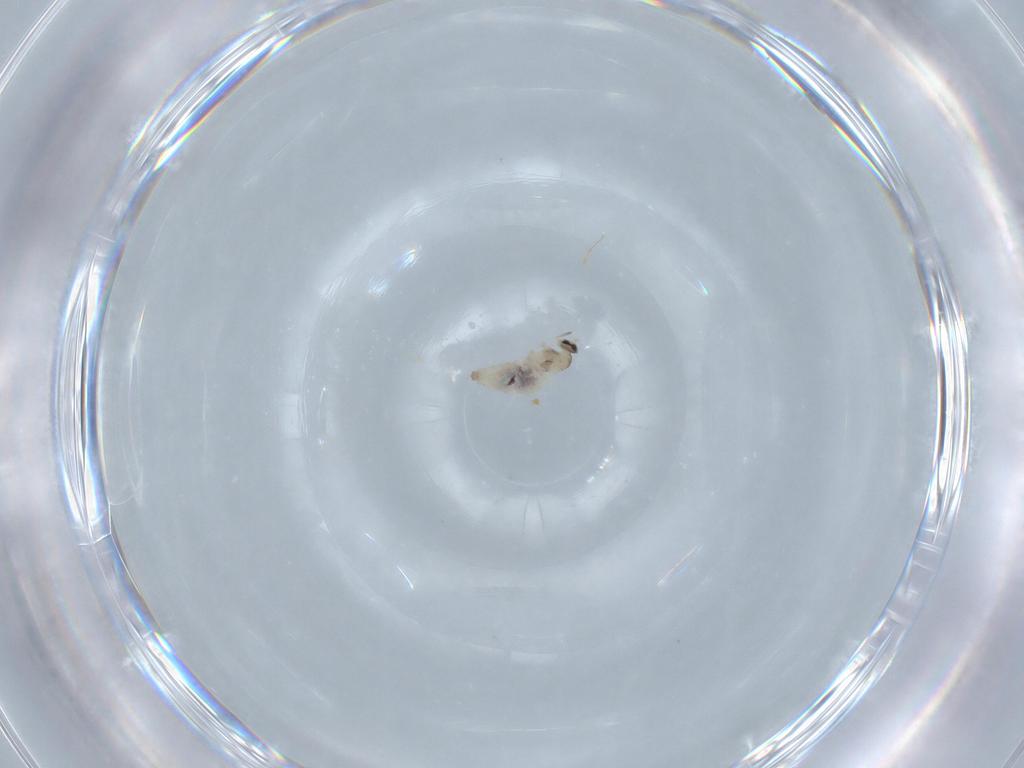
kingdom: Animalia
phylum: Arthropoda
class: Insecta
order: Diptera
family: Cecidomyiidae
